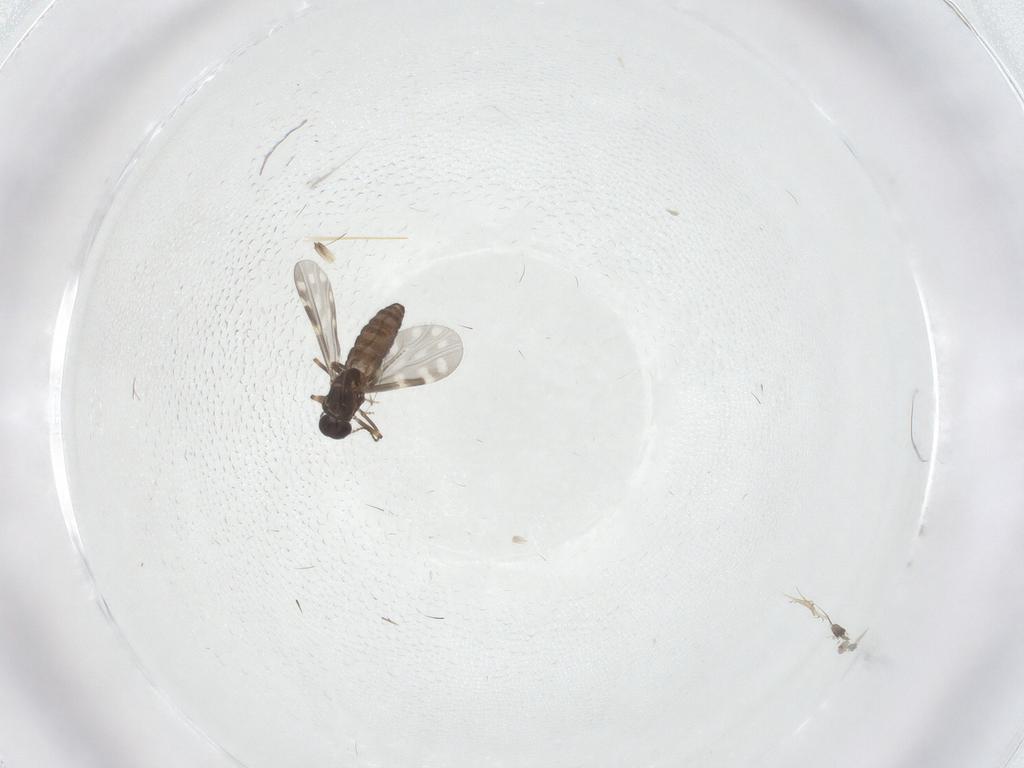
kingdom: Animalia
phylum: Arthropoda
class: Insecta
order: Diptera
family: Ceratopogonidae
